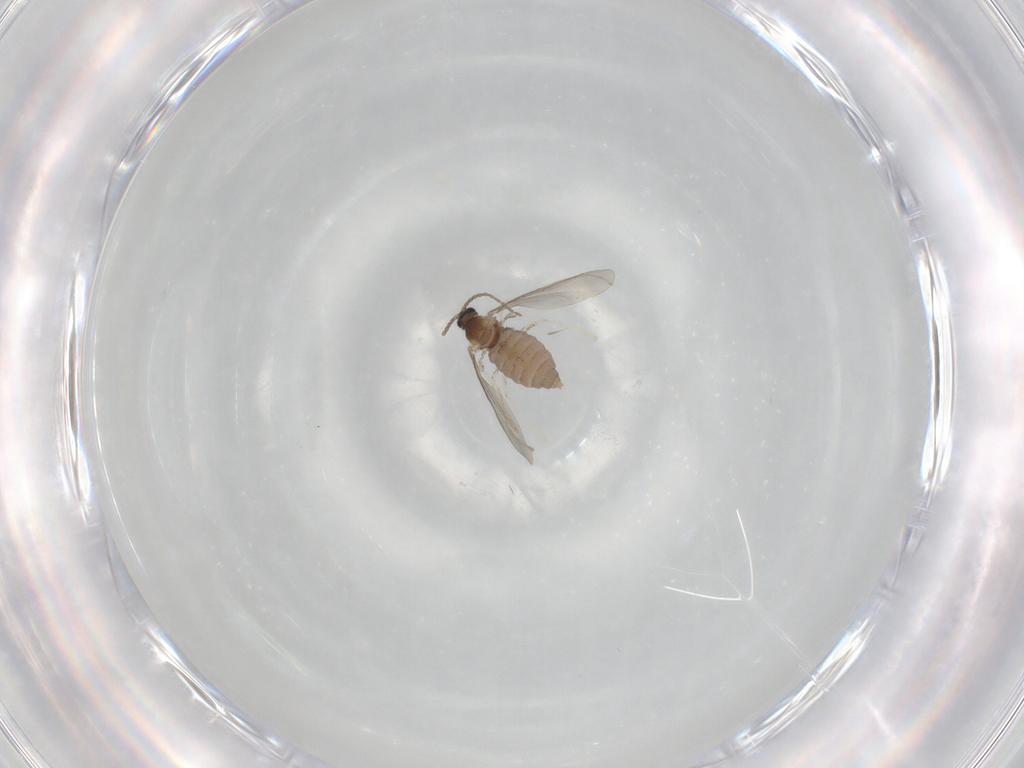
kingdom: Animalia
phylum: Arthropoda
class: Insecta
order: Diptera
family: Cecidomyiidae
